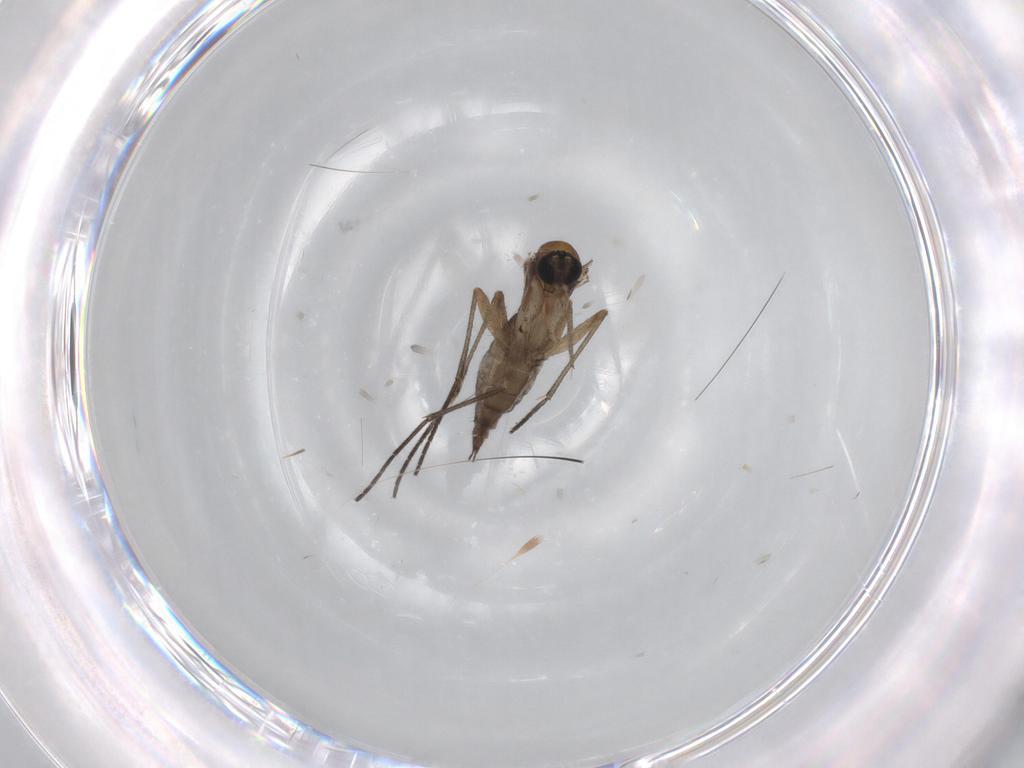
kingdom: Animalia
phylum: Arthropoda
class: Insecta
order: Diptera
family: Sciaridae
